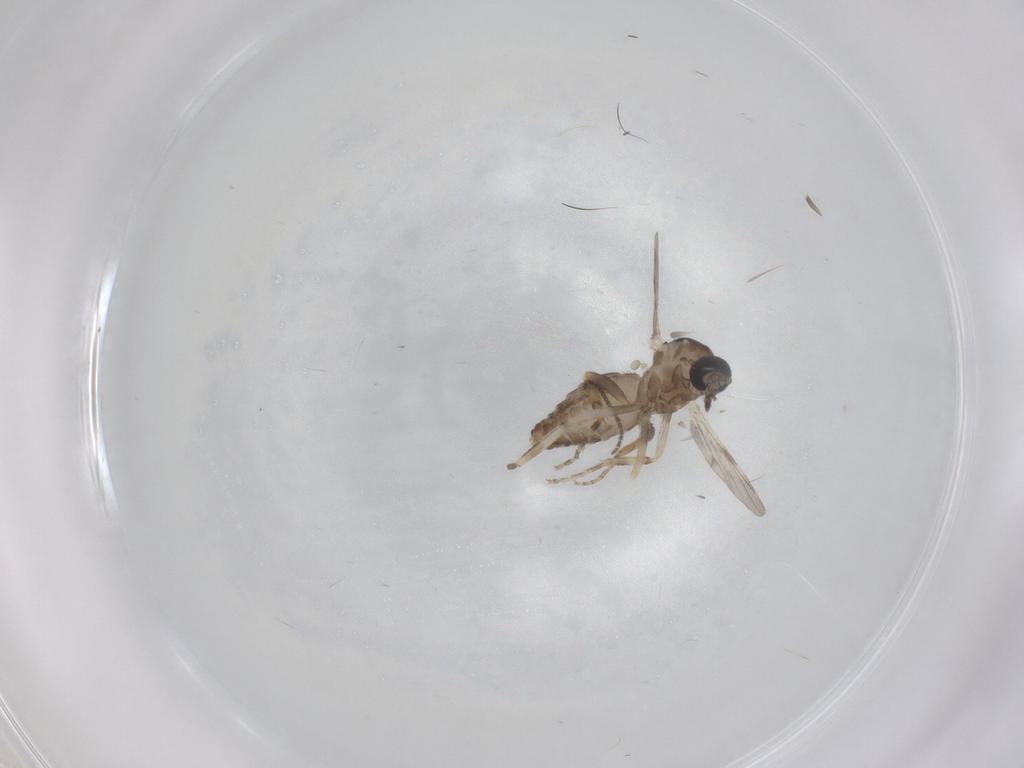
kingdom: Animalia
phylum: Arthropoda
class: Insecta
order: Diptera
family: Ceratopogonidae
